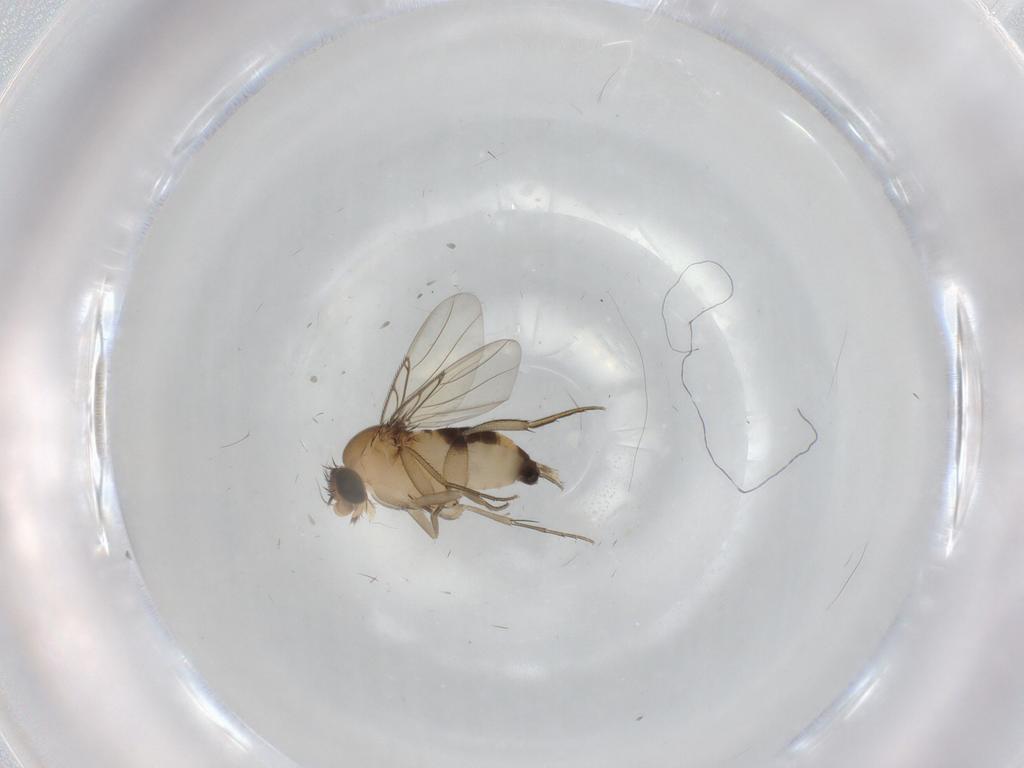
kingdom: Animalia
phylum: Arthropoda
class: Insecta
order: Diptera
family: Phoridae
